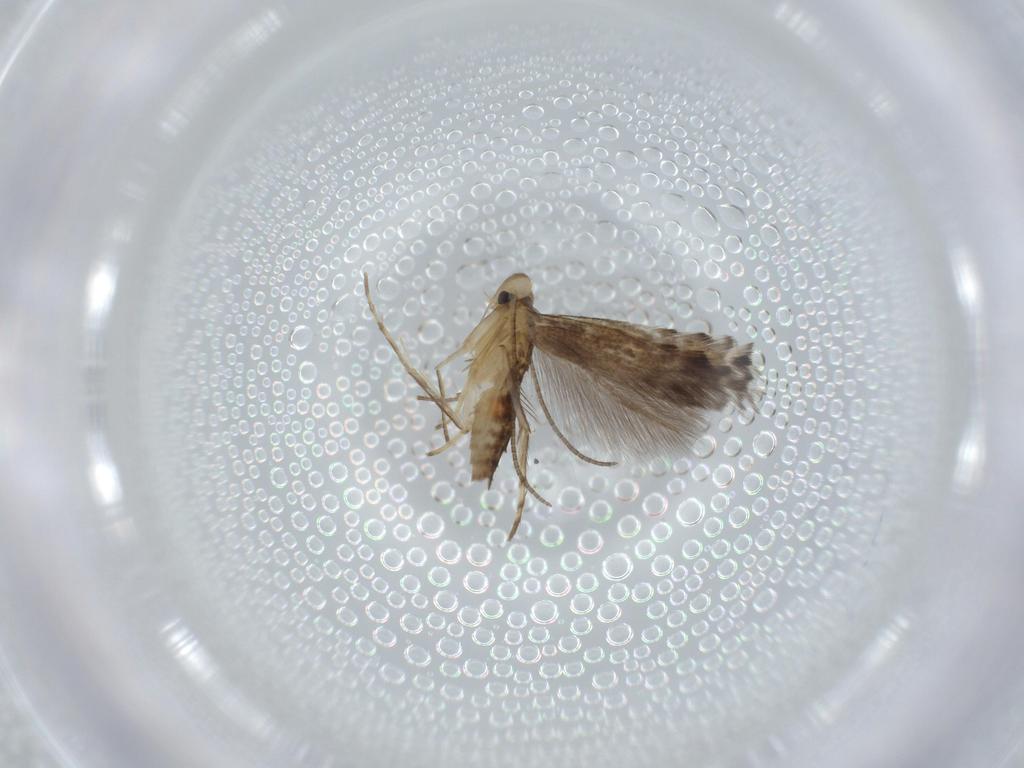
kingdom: Animalia
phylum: Arthropoda
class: Insecta
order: Lepidoptera
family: Gracillariidae
